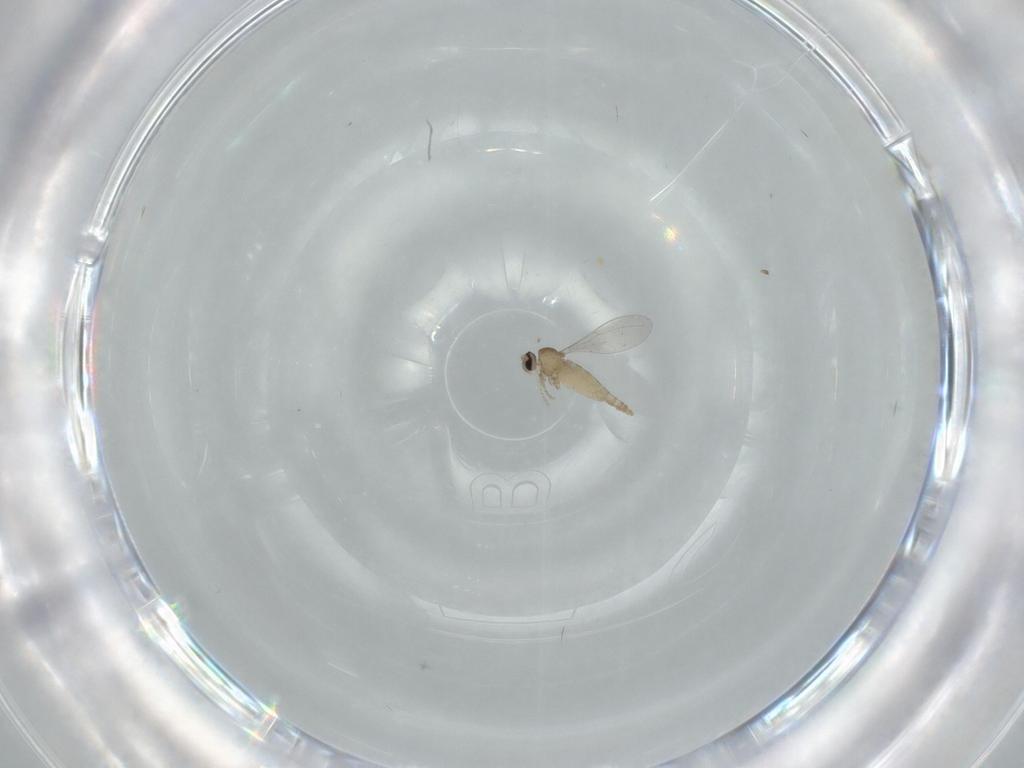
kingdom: Animalia
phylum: Arthropoda
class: Insecta
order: Diptera
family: Cecidomyiidae
